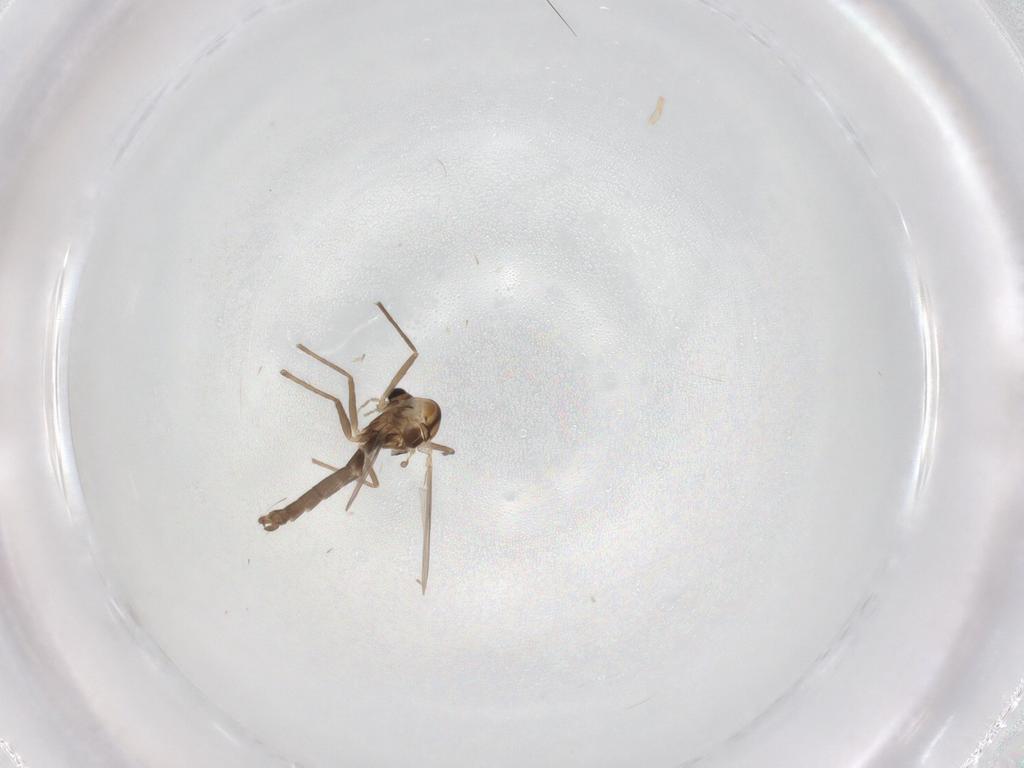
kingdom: Animalia
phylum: Arthropoda
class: Insecta
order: Diptera
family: Chironomidae
